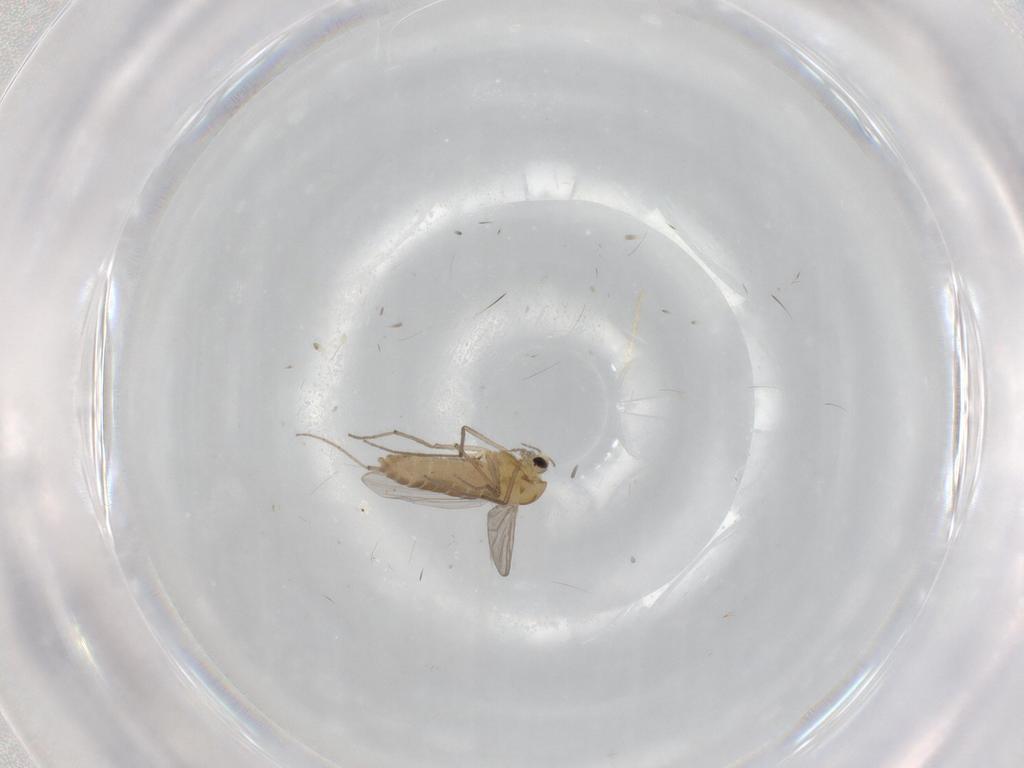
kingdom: Animalia
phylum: Arthropoda
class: Insecta
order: Diptera
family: Chironomidae
